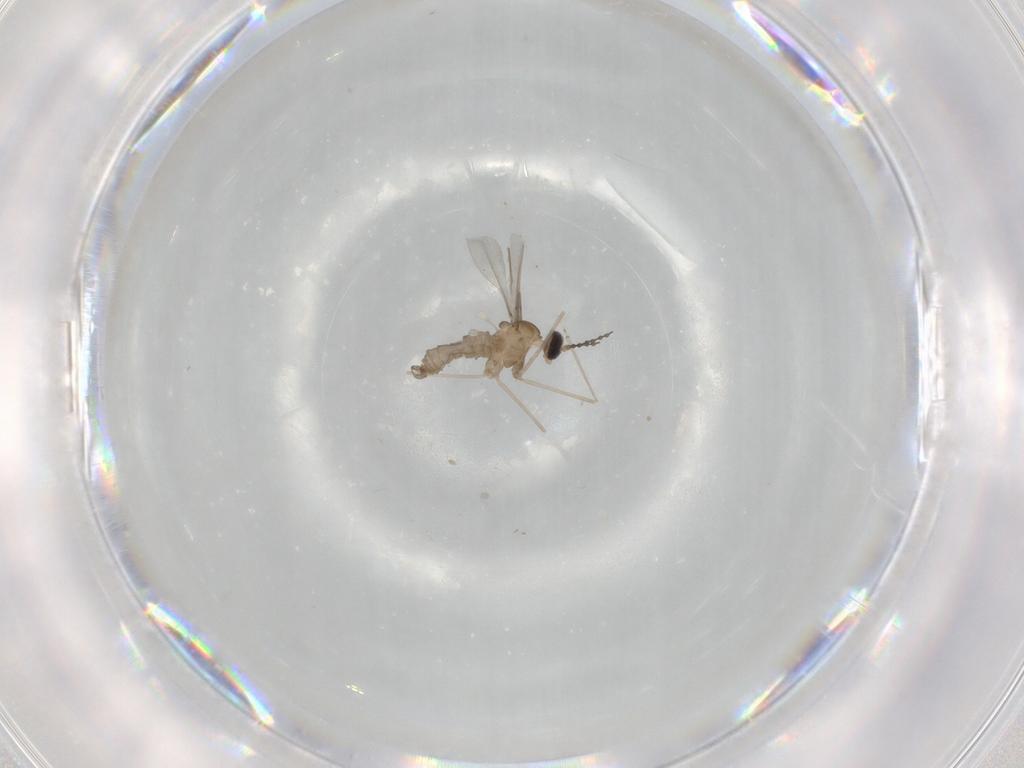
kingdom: Animalia
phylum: Arthropoda
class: Insecta
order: Diptera
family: Cecidomyiidae
